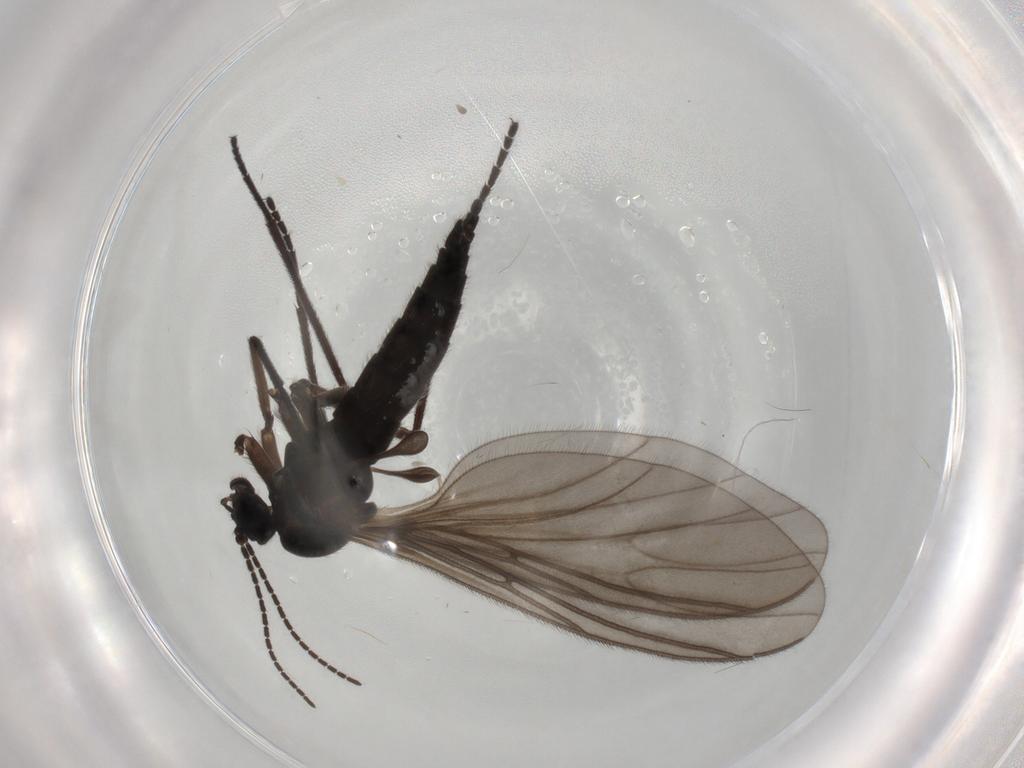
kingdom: Animalia
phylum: Arthropoda
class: Insecta
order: Diptera
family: Sciaridae
